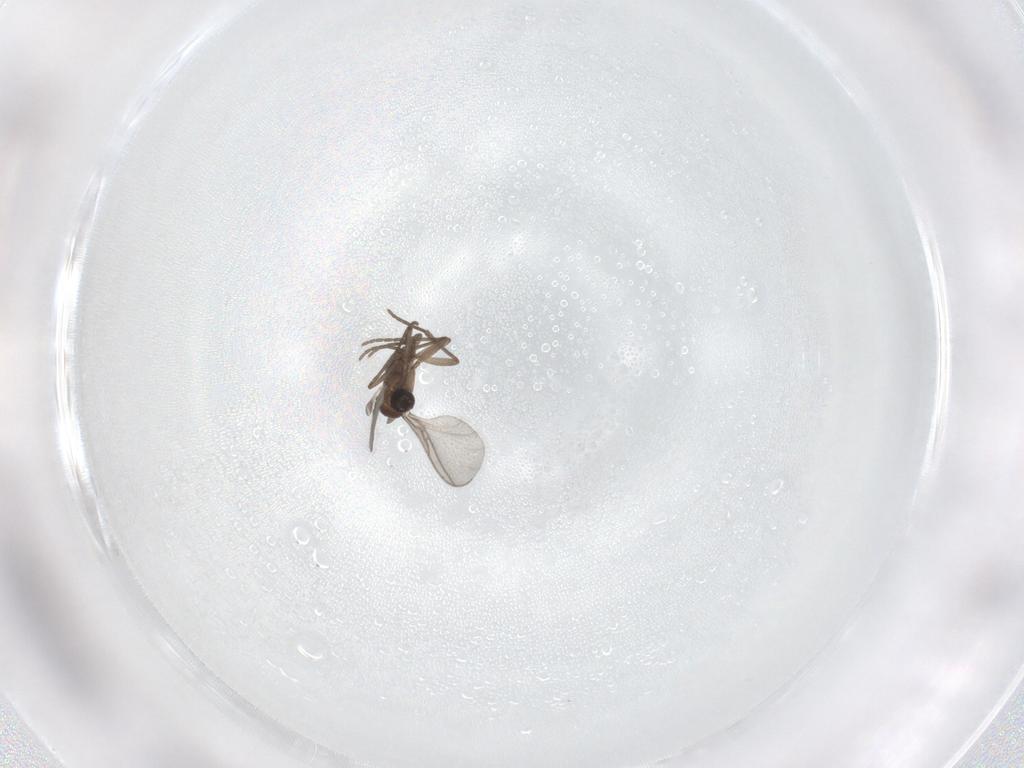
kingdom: Animalia
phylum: Arthropoda
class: Insecta
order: Diptera
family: Sciaridae
